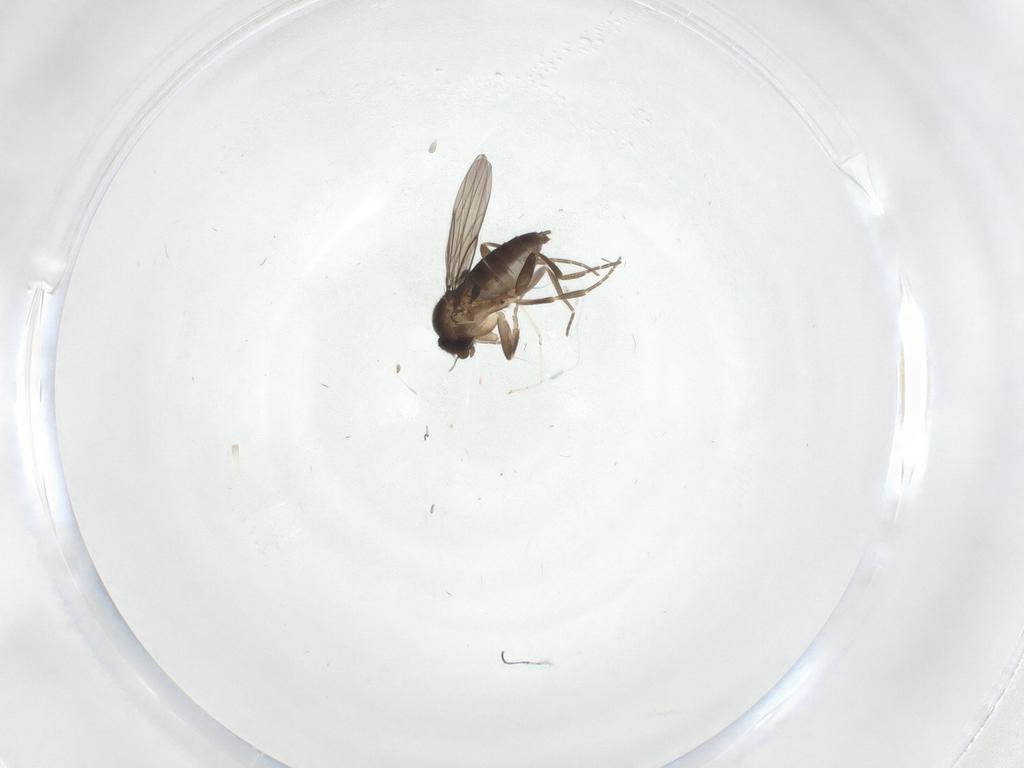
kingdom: Animalia
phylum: Arthropoda
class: Insecta
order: Diptera
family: Phoridae
